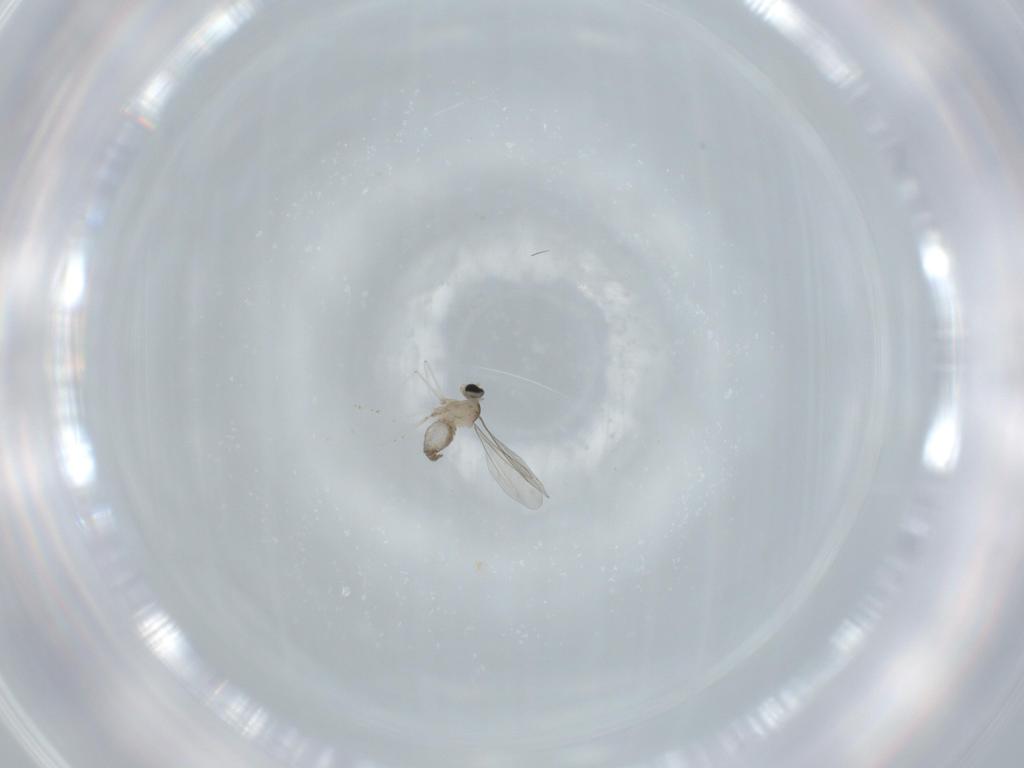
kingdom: Animalia
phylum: Arthropoda
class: Insecta
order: Diptera
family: Cecidomyiidae
